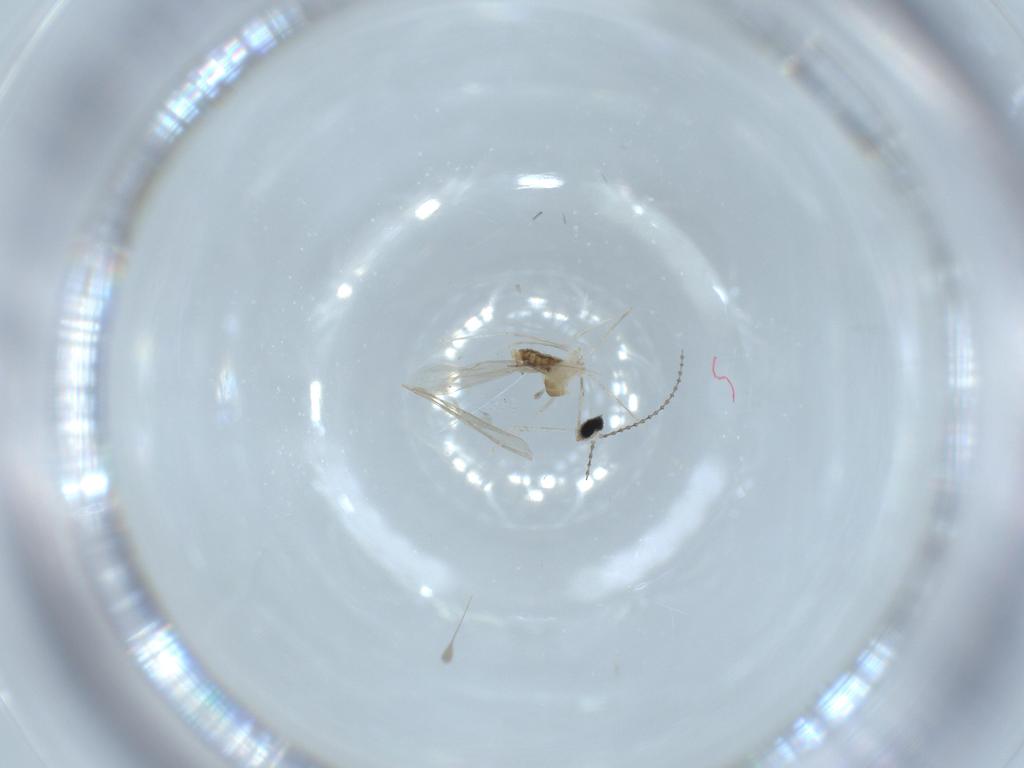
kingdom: Animalia
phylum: Arthropoda
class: Insecta
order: Diptera
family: Cecidomyiidae
